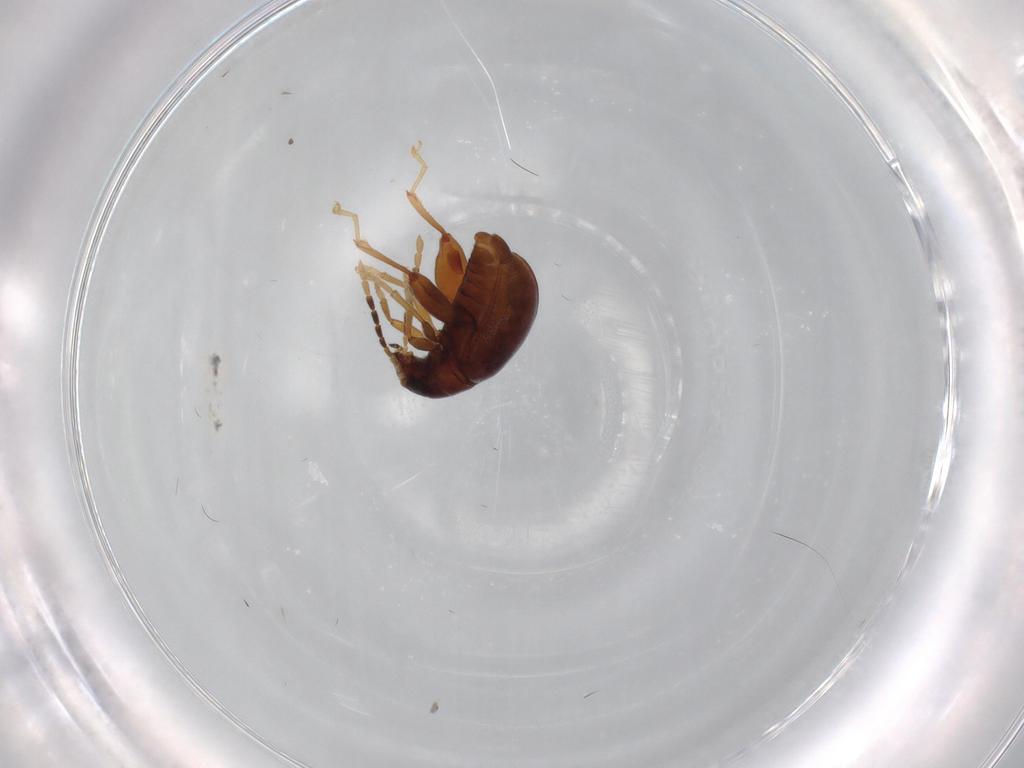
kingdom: Animalia
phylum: Arthropoda
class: Insecta
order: Coleoptera
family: Chrysomelidae
